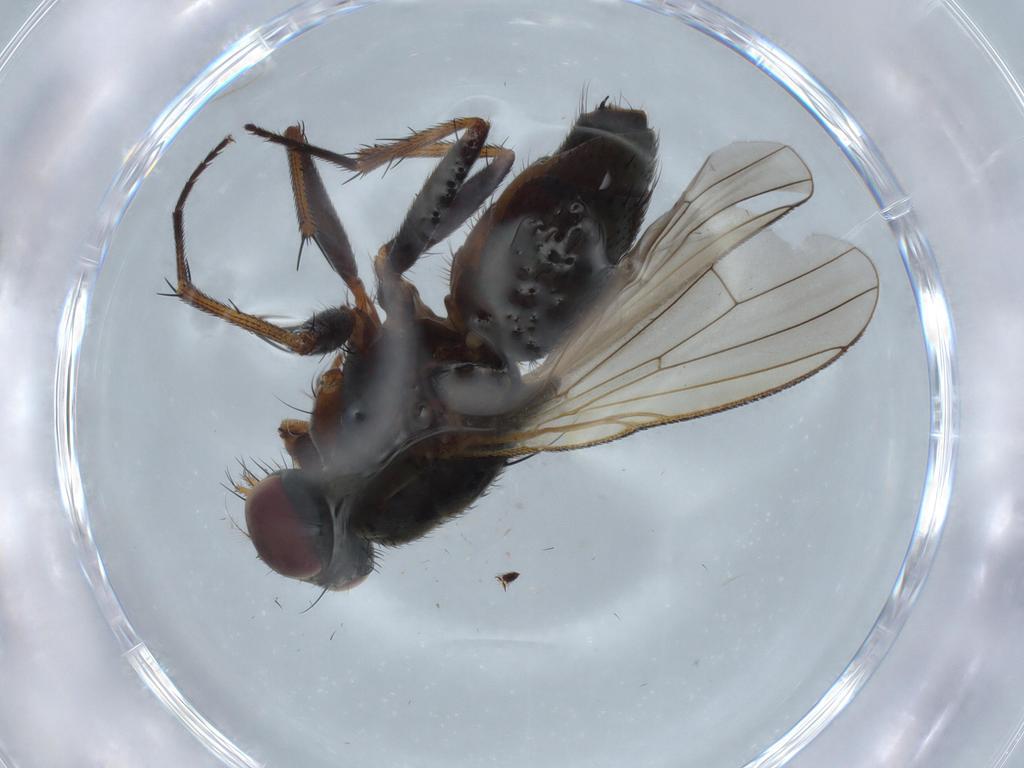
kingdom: Animalia
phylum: Arthropoda
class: Insecta
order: Diptera
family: Muscidae
